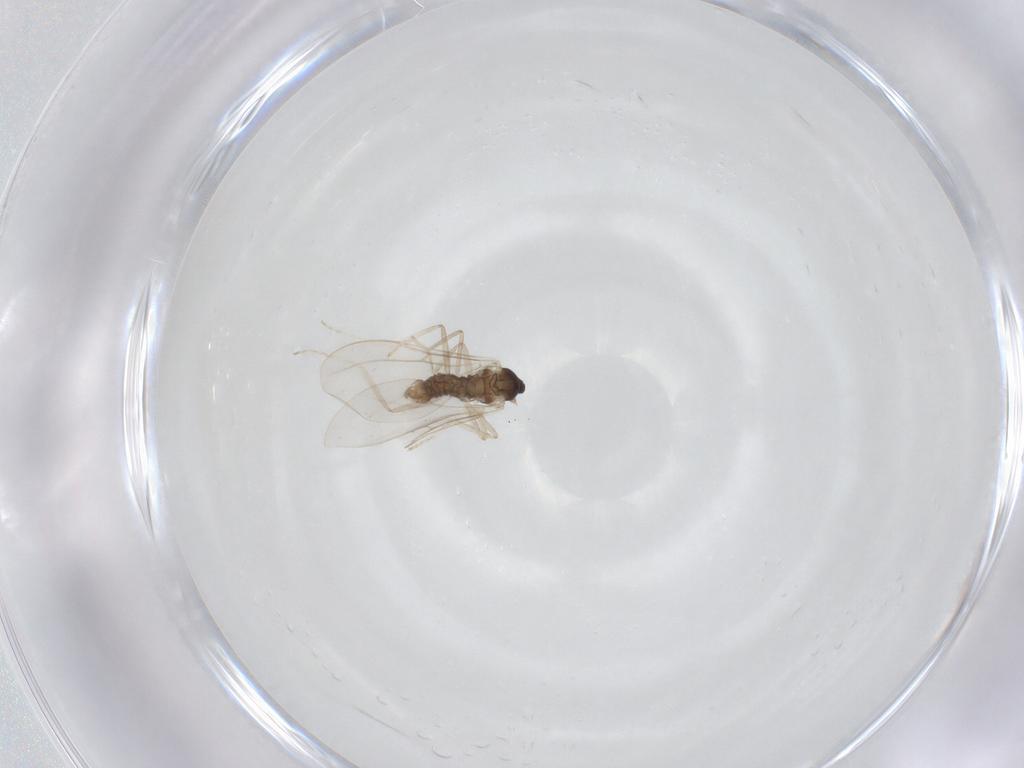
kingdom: Animalia
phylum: Arthropoda
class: Insecta
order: Diptera
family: Cecidomyiidae
